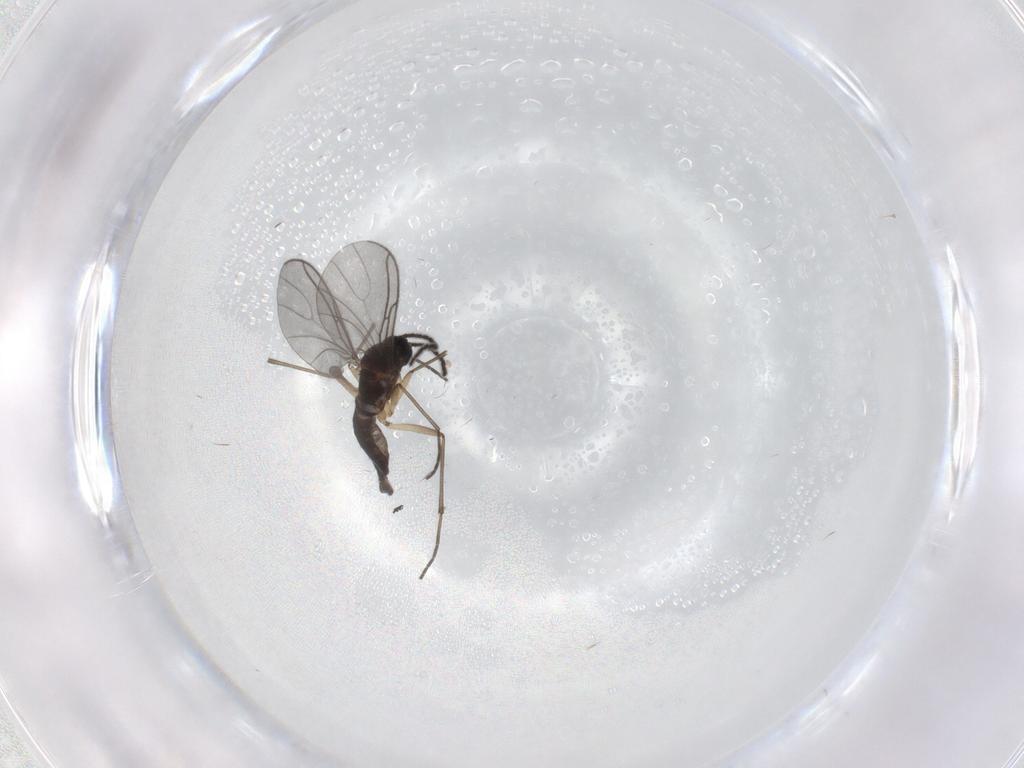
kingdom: Animalia
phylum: Arthropoda
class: Insecta
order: Diptera
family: Sciaridae
